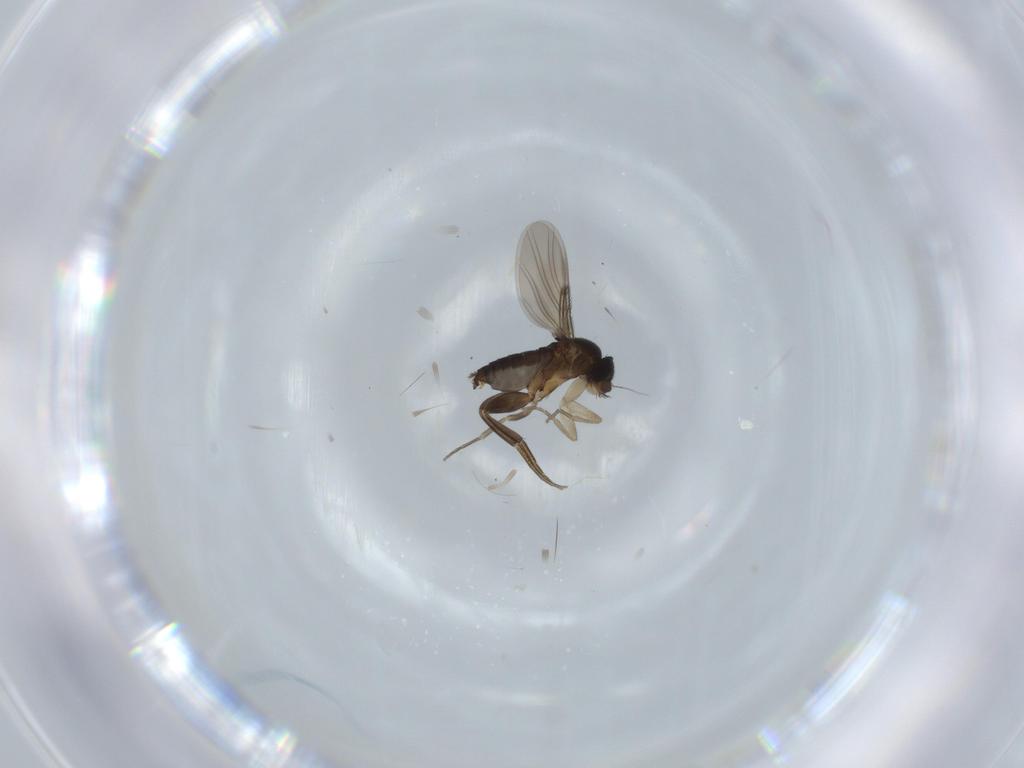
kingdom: Animalia
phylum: Arthropoda
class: Insecta
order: Diptera
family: Phoridae
